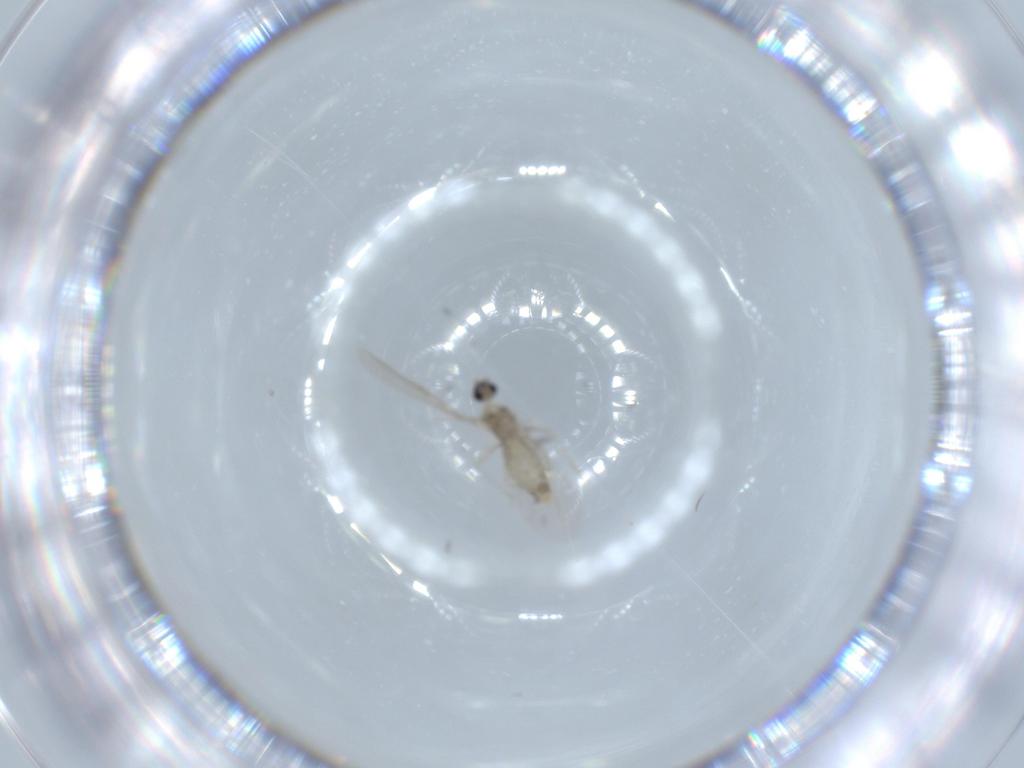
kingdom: Animalia
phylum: Arthropoda
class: Insecta
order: Diptera
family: Cecidomyiidae
